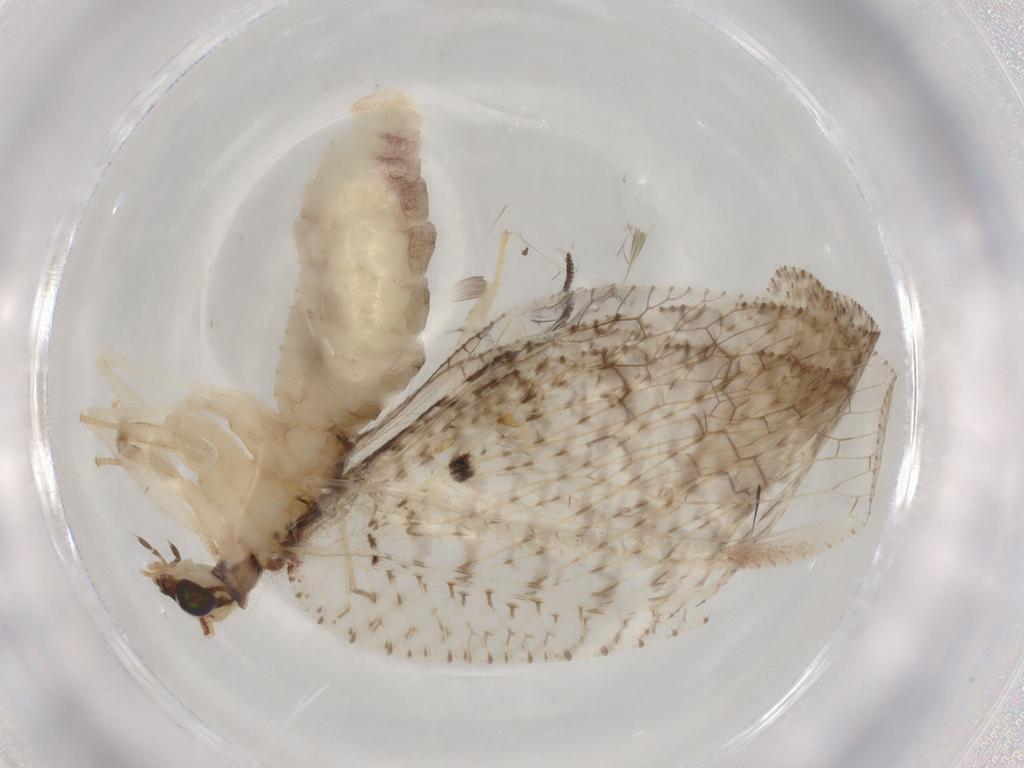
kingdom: Animalia
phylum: Arthropoda
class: Insecta
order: Neuroptera
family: Hemerobiidae
